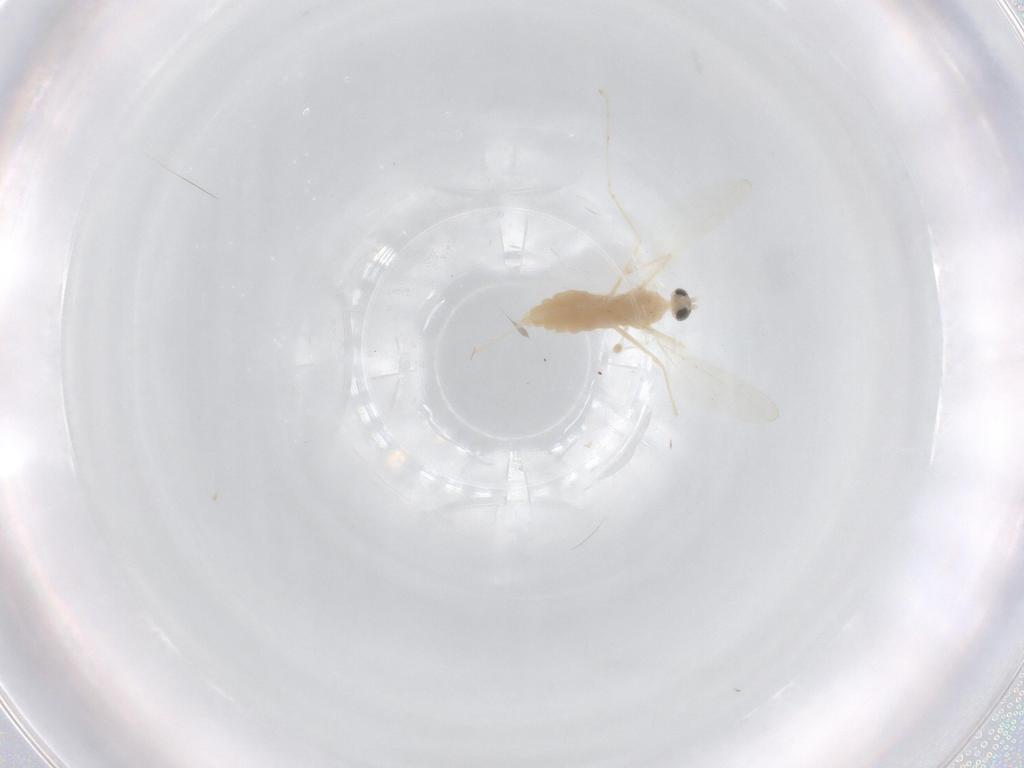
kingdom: Animalia
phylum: Arthropoda
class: Insecta
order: Diptera
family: Cecidomyiidae
